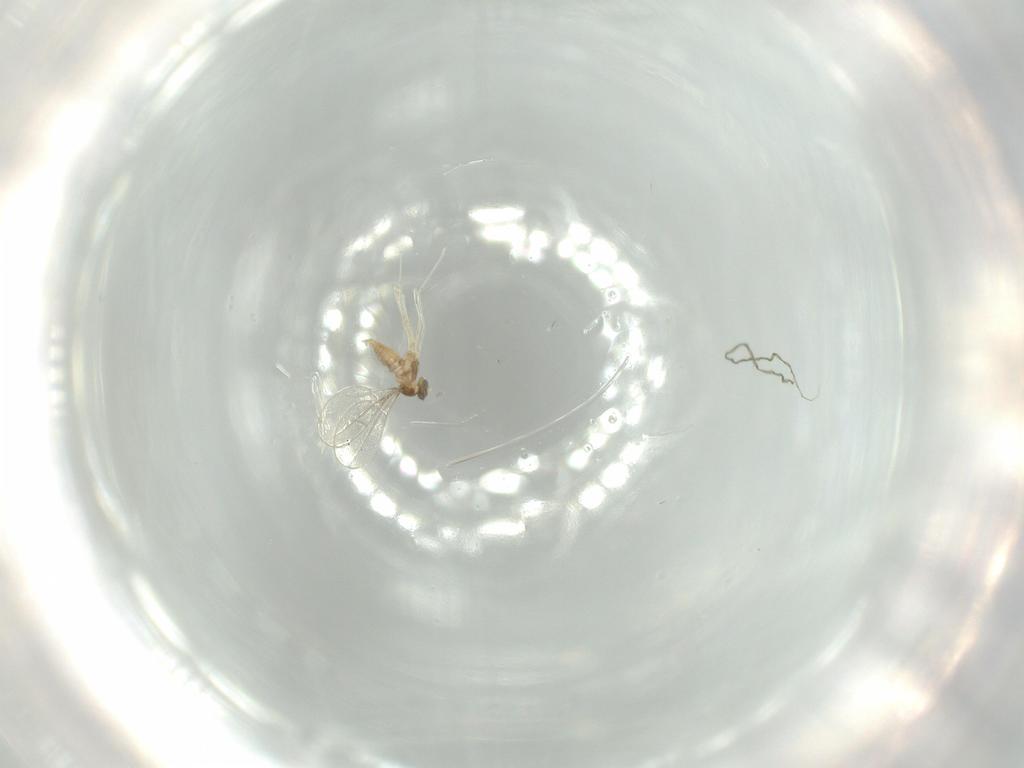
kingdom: Animalia
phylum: Arthropoda
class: Insecta
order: Diptera
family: Cecidomyiidae
